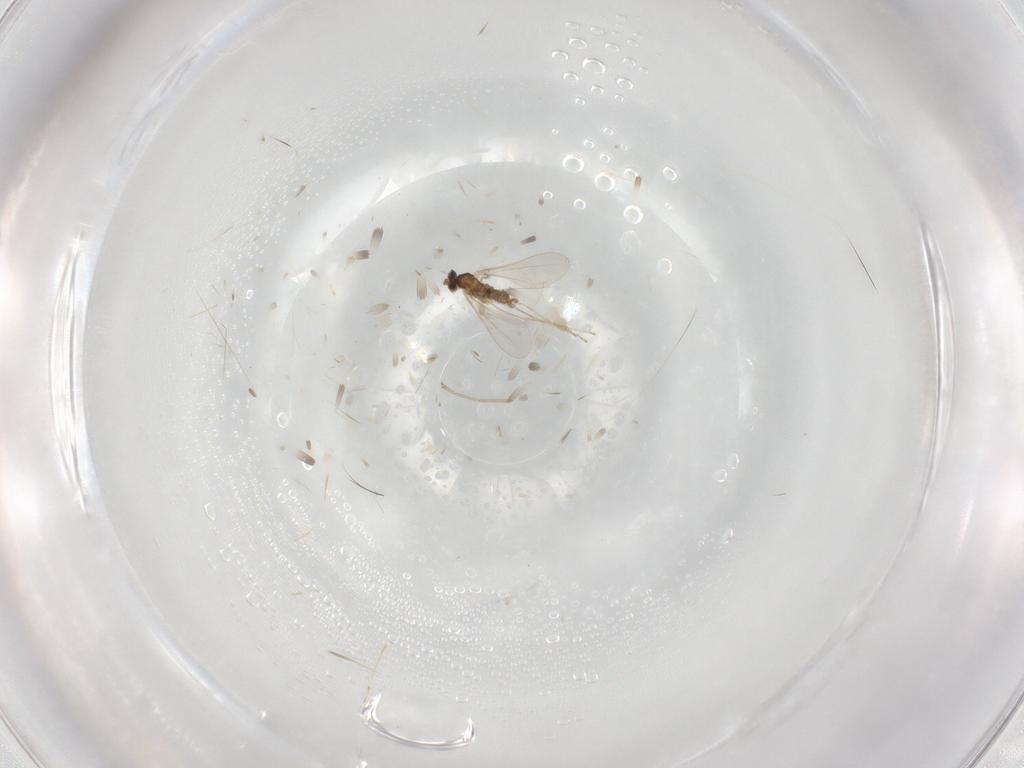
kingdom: Animalia
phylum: Arthropoda
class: Insecta
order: Diptera
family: Cecidomyiidae
